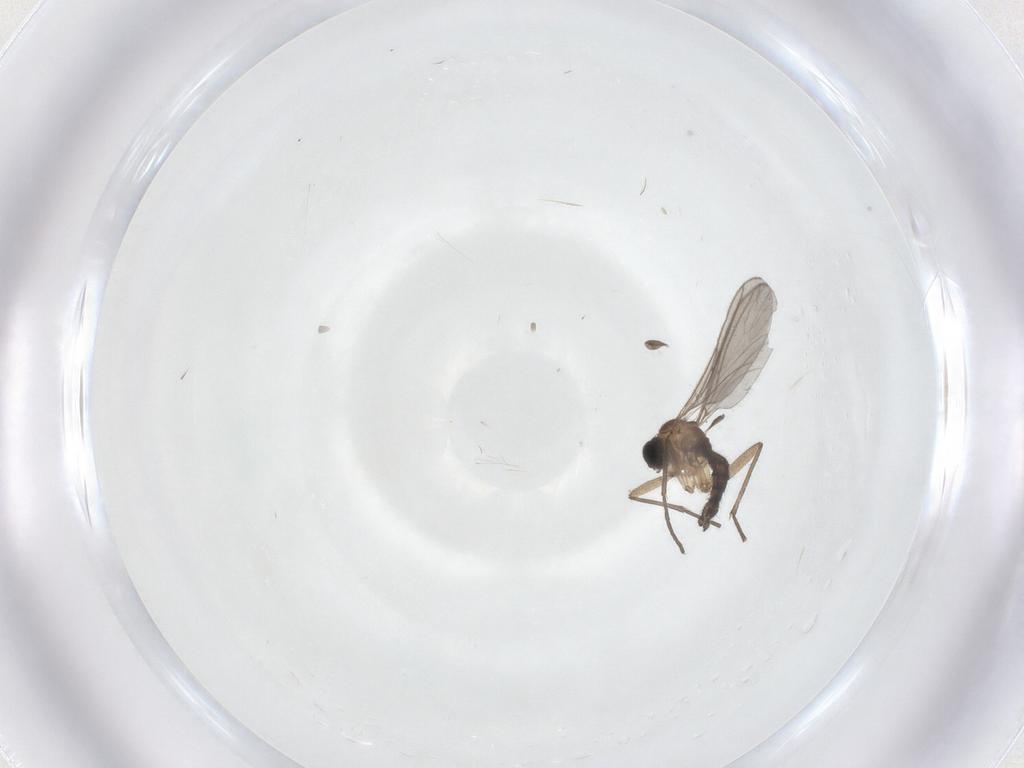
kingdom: Animalia
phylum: Arthropoda
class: Insecta
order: Diptera
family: Sciaridae
